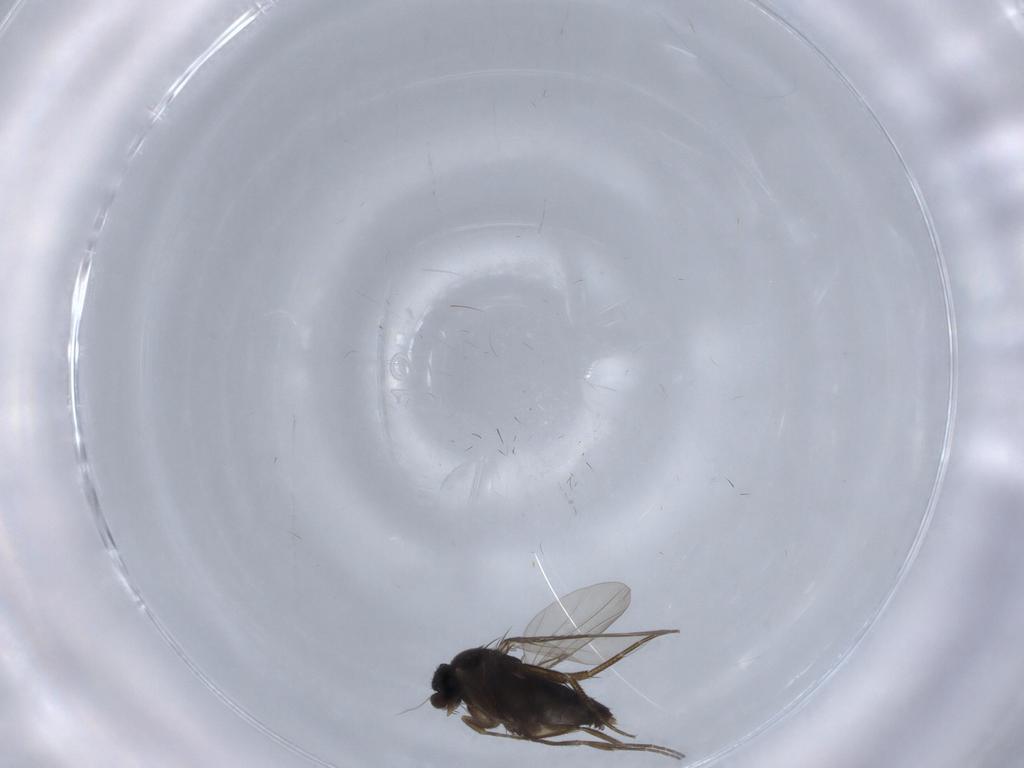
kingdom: Animalia
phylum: Arthropoda
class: Insecta
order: Diptera
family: Phoridae
